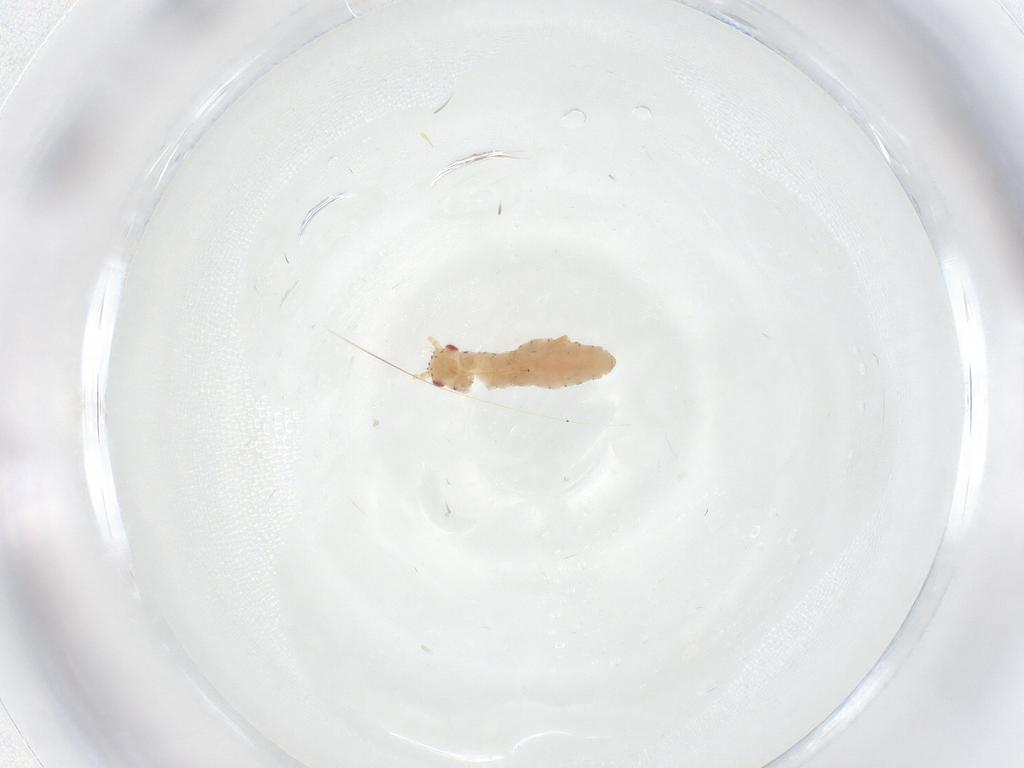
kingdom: Animalia
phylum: Arthropoda
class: Insecta
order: Hemiptera
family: Aphididae
